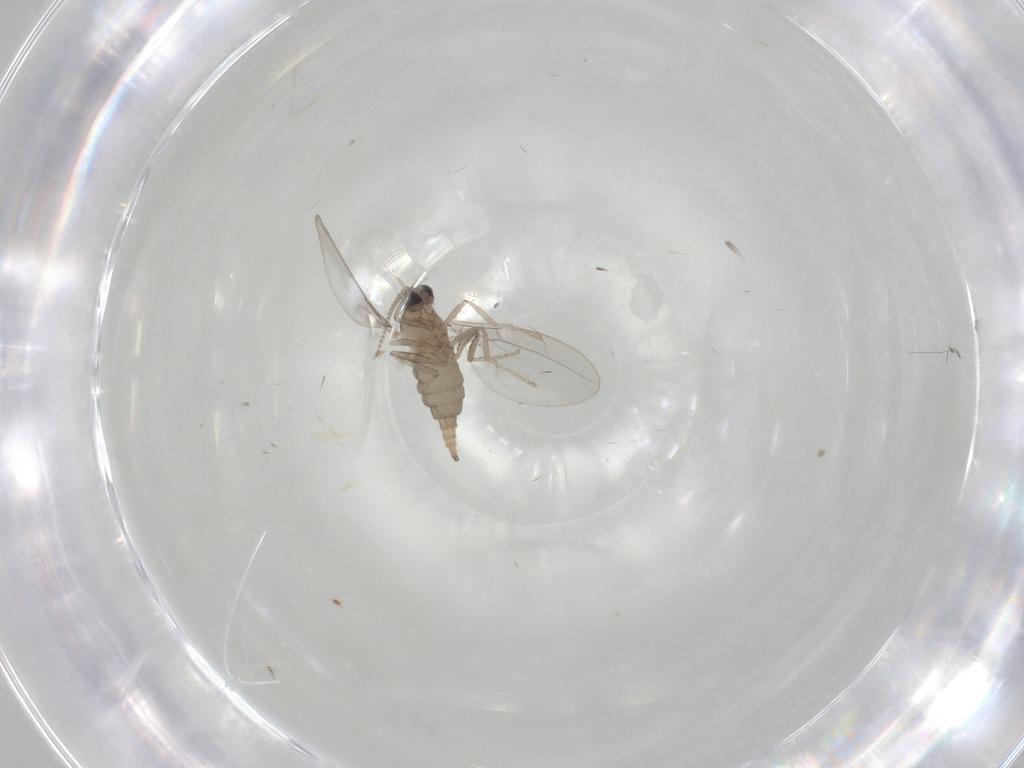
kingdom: Animalia
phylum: Arthropoda
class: Insecta
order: Diptera
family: Cecidomyiidae
